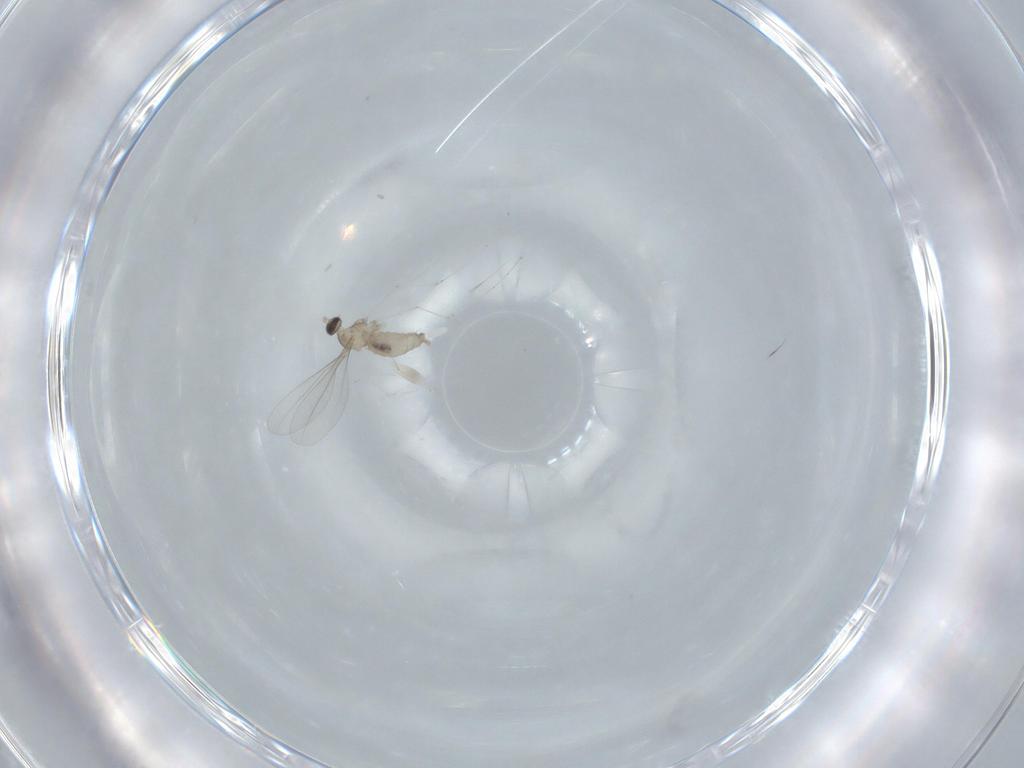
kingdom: Animalia
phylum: Arthropoda
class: Insecta
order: Diptera
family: Cecidomyiidae
